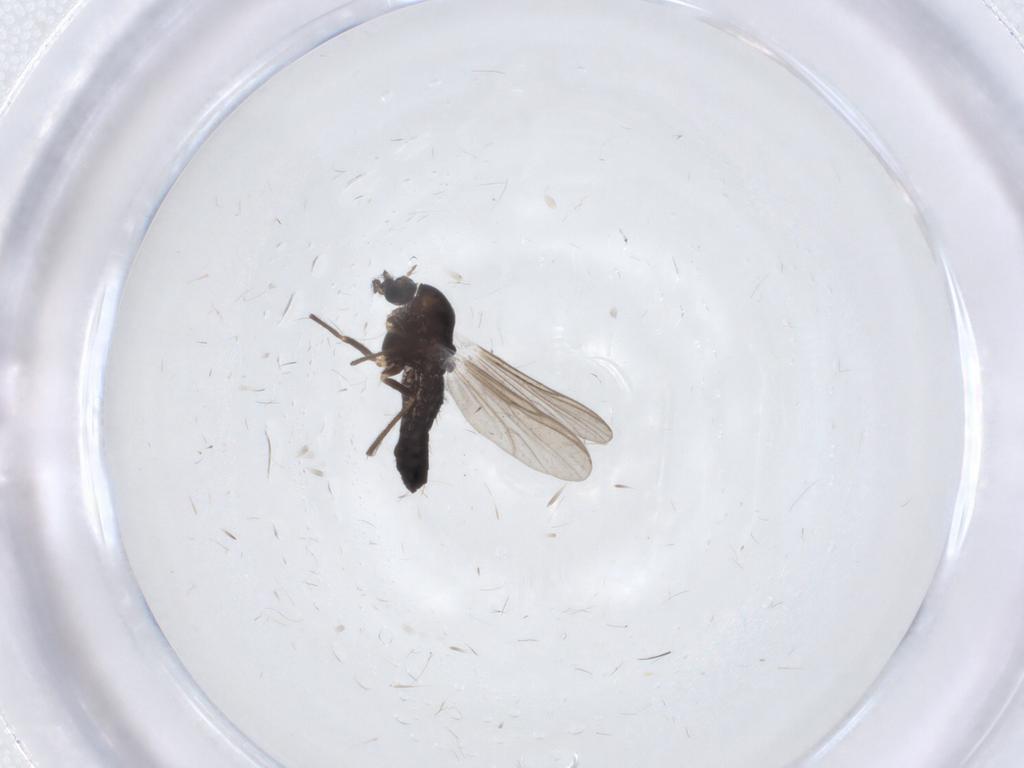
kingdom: Animalia
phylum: Arthropoda
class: Insecta
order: Diptera
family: Chironomidae
